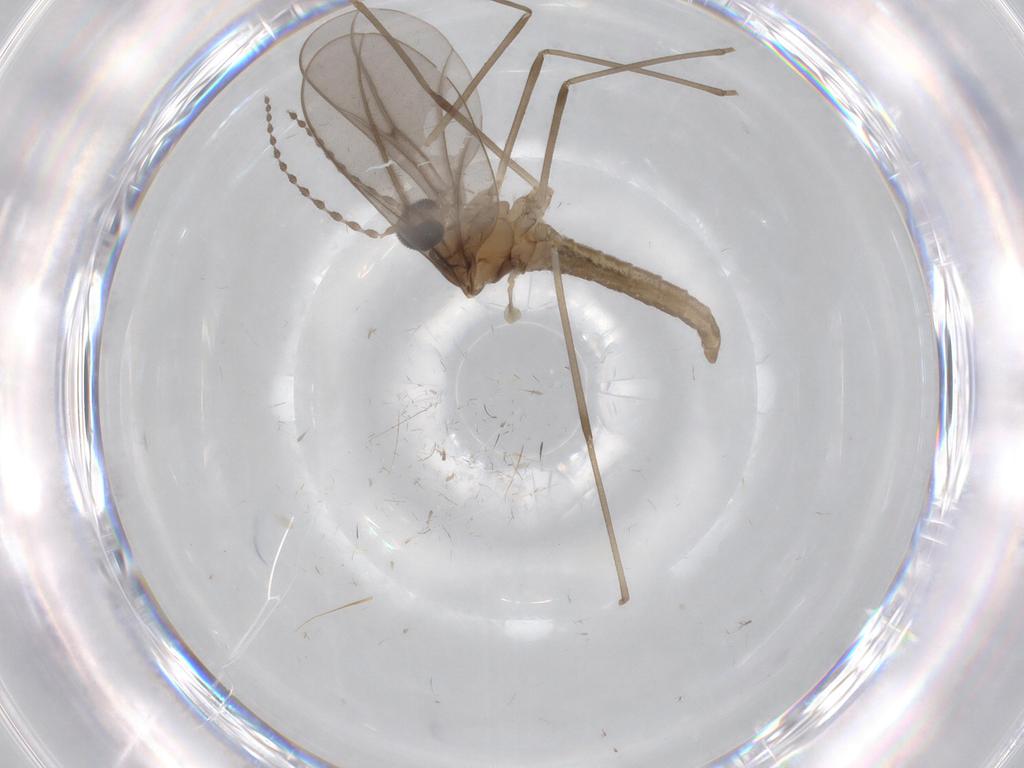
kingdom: Animalia
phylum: Arthropoda
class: Insecta
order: Diptera
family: Cecidomyiidae
